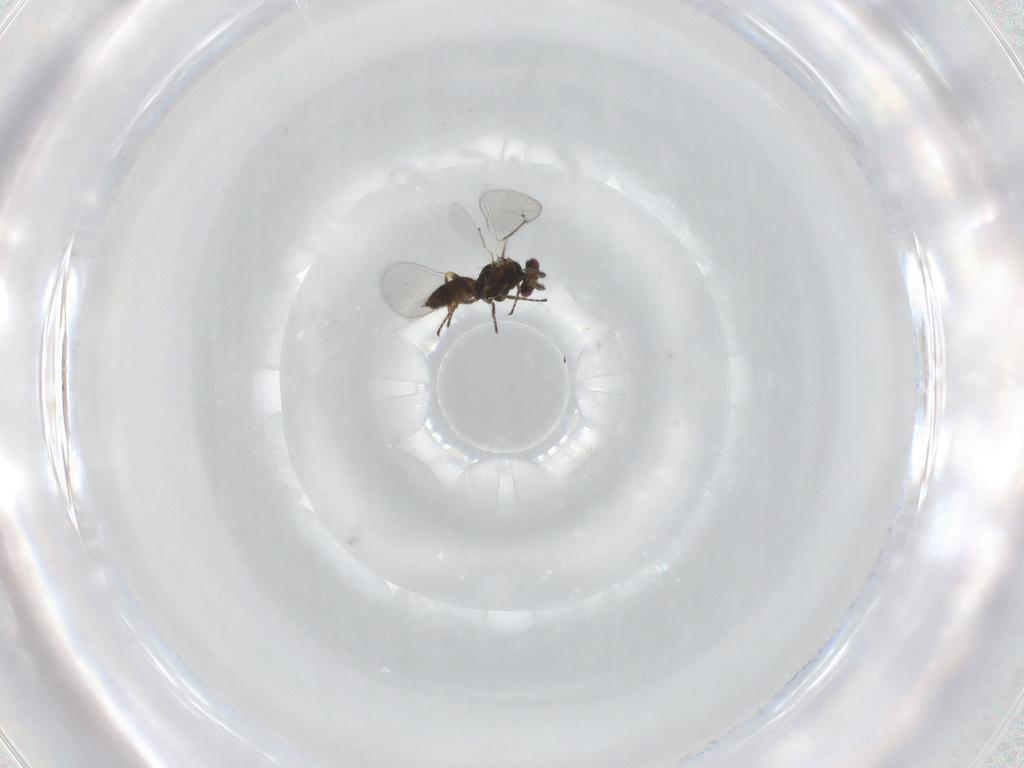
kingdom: Animalia
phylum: Arthropoda
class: Insecta
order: Hymenoptera
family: Eulophidae
